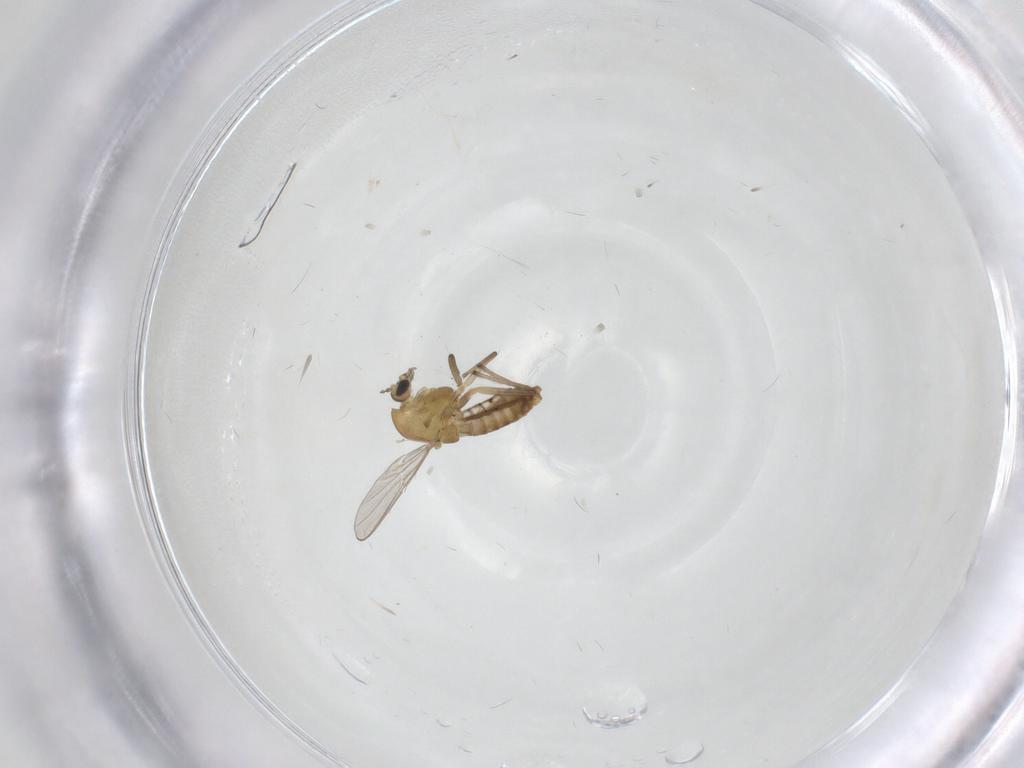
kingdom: Animalia
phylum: Arthropoda
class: Insecta
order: Diptera
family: Chironomidae
